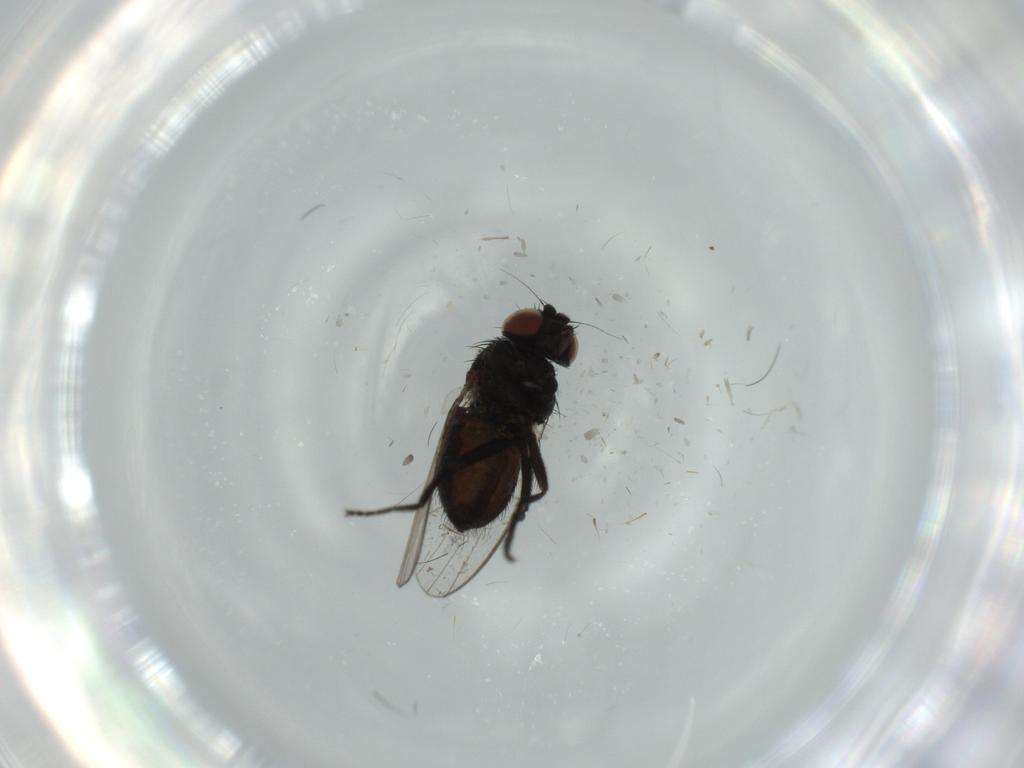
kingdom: Animalia
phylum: Arthropoda
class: Insecta
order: Diptera
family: Milichiidae
